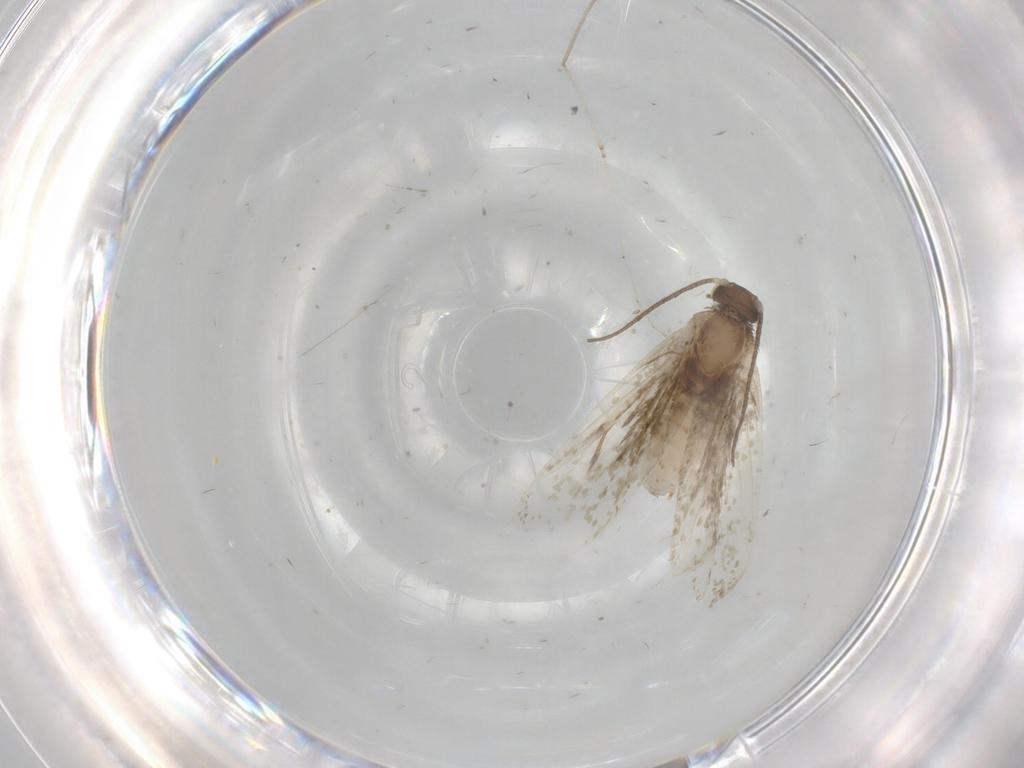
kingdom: Animalia
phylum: Arthropoda
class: Insecta
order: Lepidoptera
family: Tineidae
